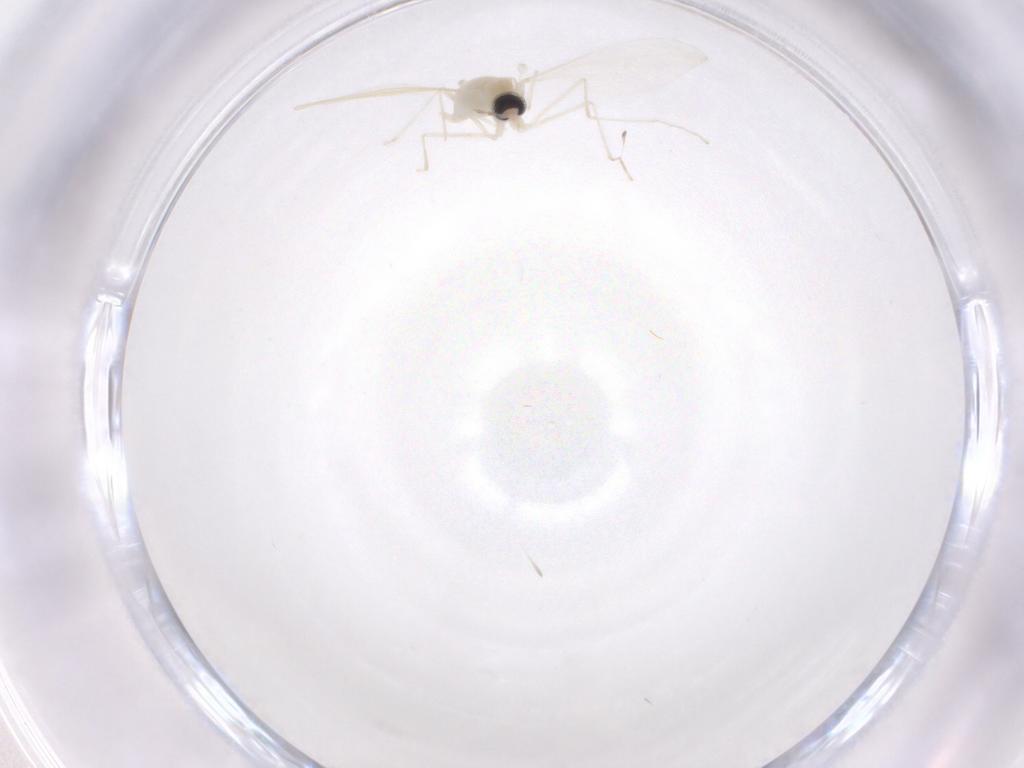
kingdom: Animalia
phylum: Arthropoda
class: Insecta
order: Diptera
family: Cecidomyiidae
